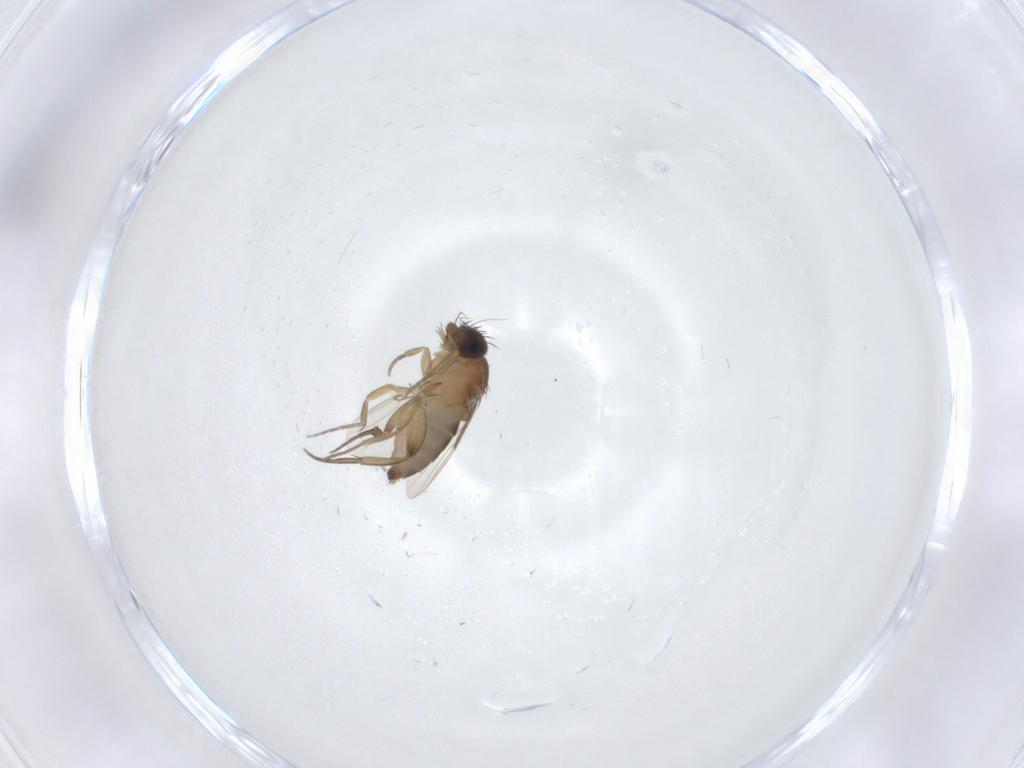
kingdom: Animalia
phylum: Arthropoda
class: Insecta
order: Diptera
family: Phoridae
